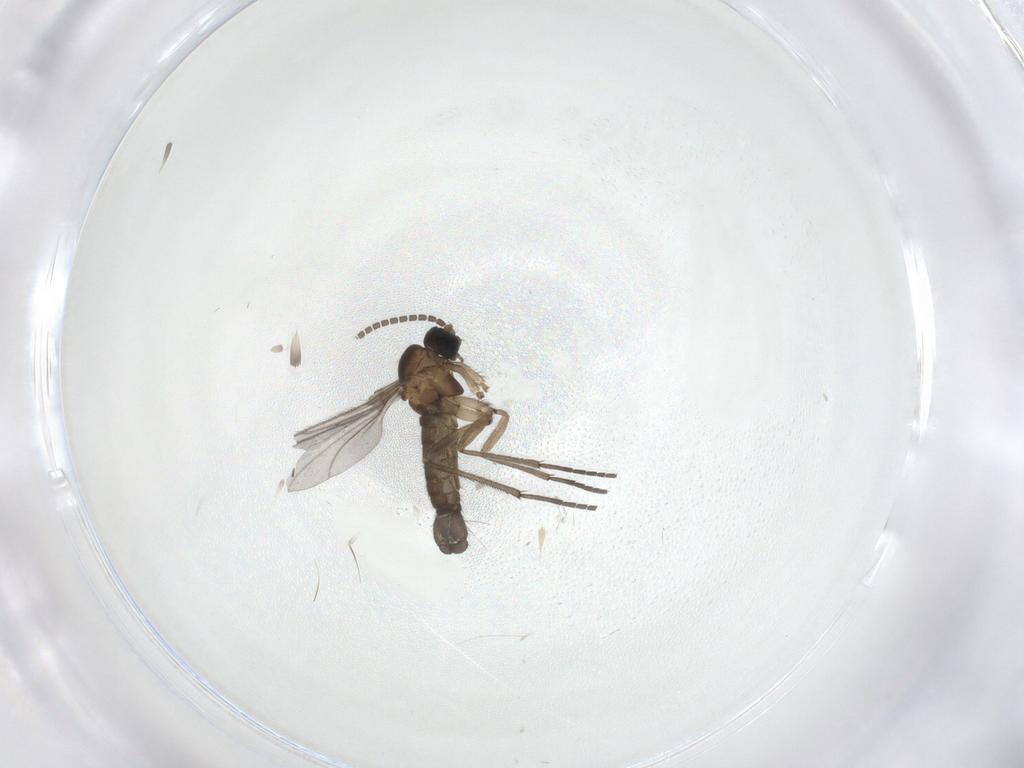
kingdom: Animalia
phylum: Arthropoda
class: Insecta
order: Diptera
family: Sciaridae
